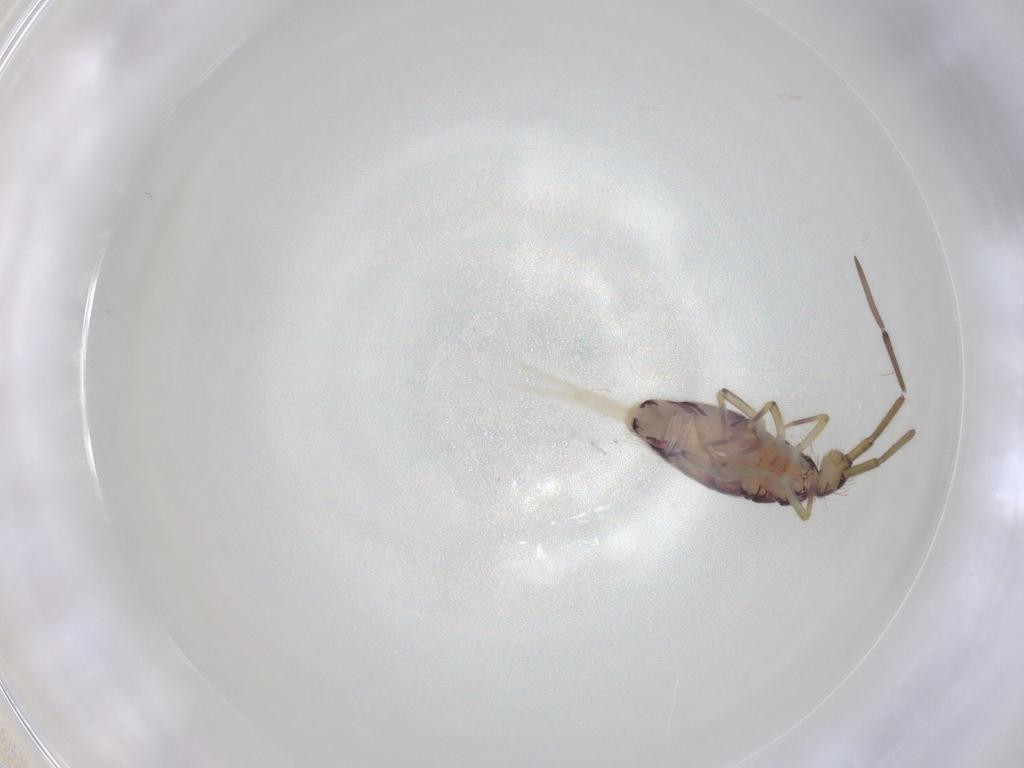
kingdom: Animalia
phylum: Arthropoda
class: Collembola
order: Entomobryomorpha
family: Entomobryidae
